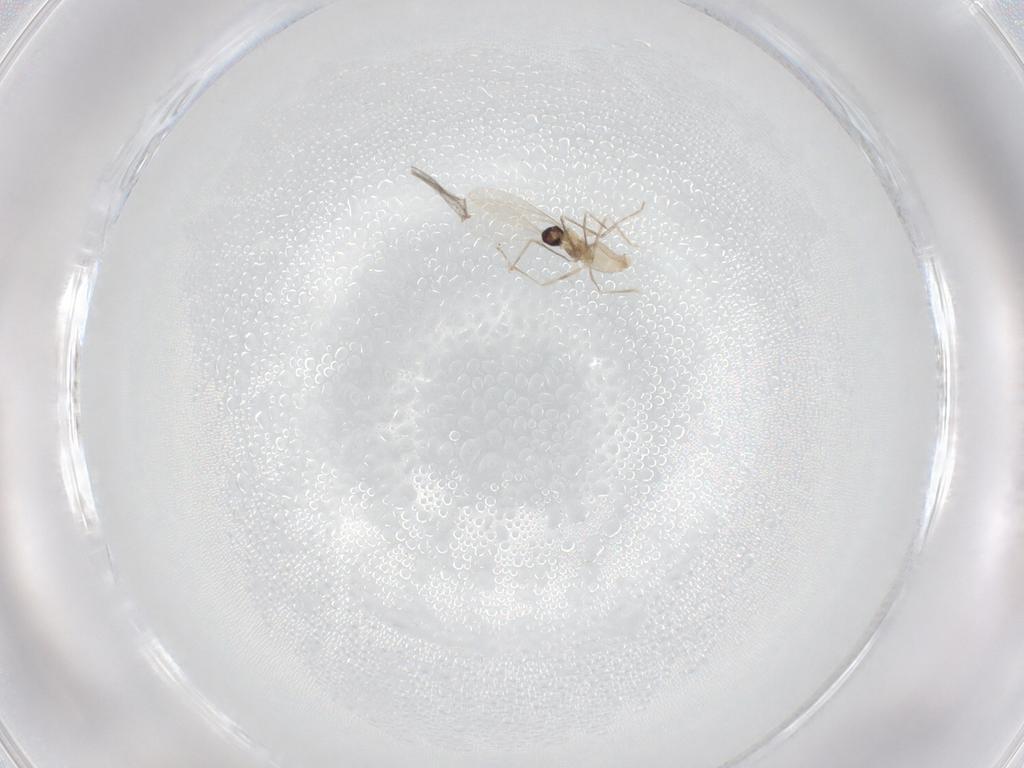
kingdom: Animalia
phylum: Arthropoda
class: Insecta
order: Diptera
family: Cecidomyiidae
